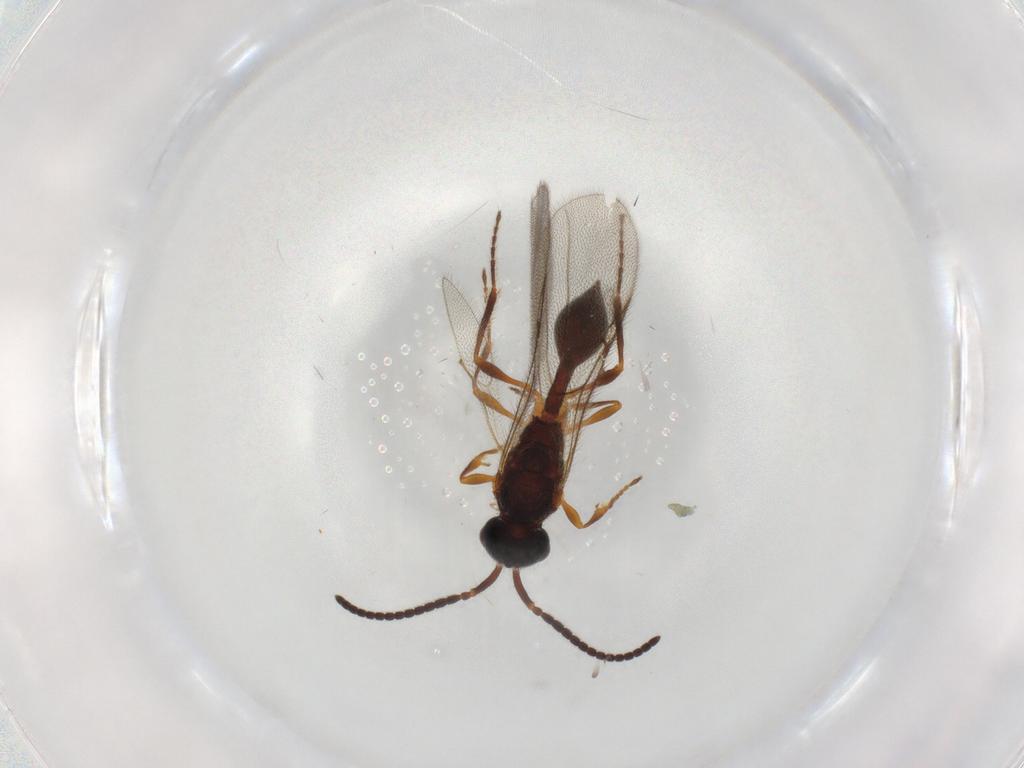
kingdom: Animalia
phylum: Arthropoda
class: Insecta
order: Hymenoptera
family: Diapriidae
